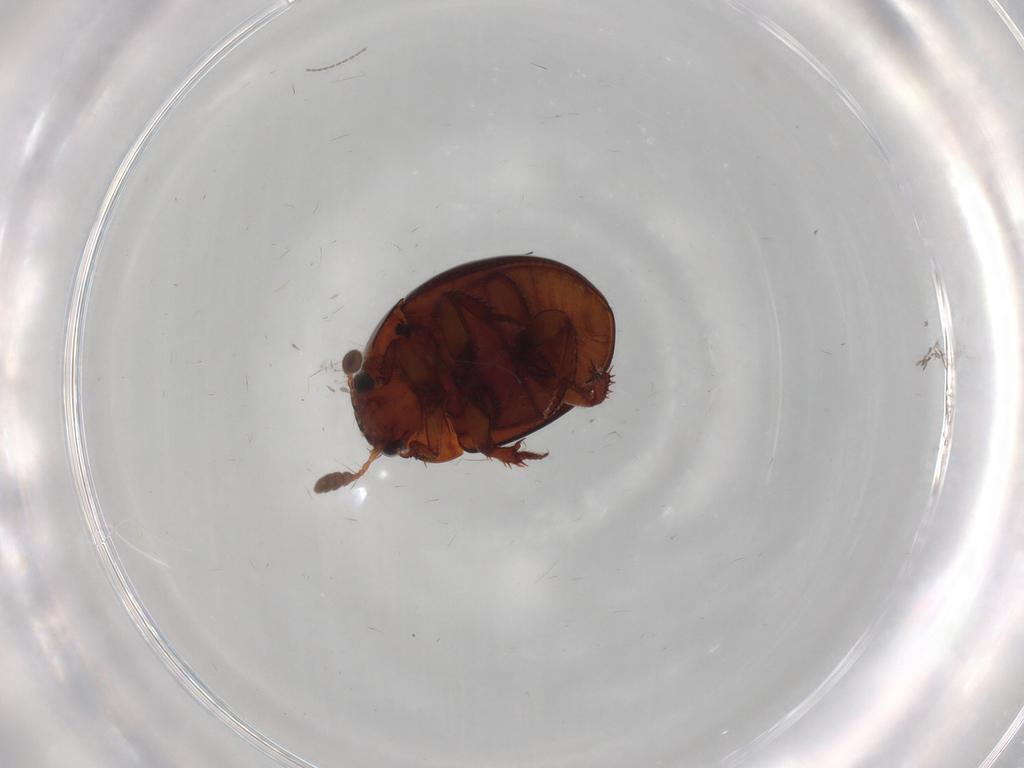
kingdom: Animalia
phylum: Arthropoda
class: Insecta
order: Coleoptera
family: Leiodidae
